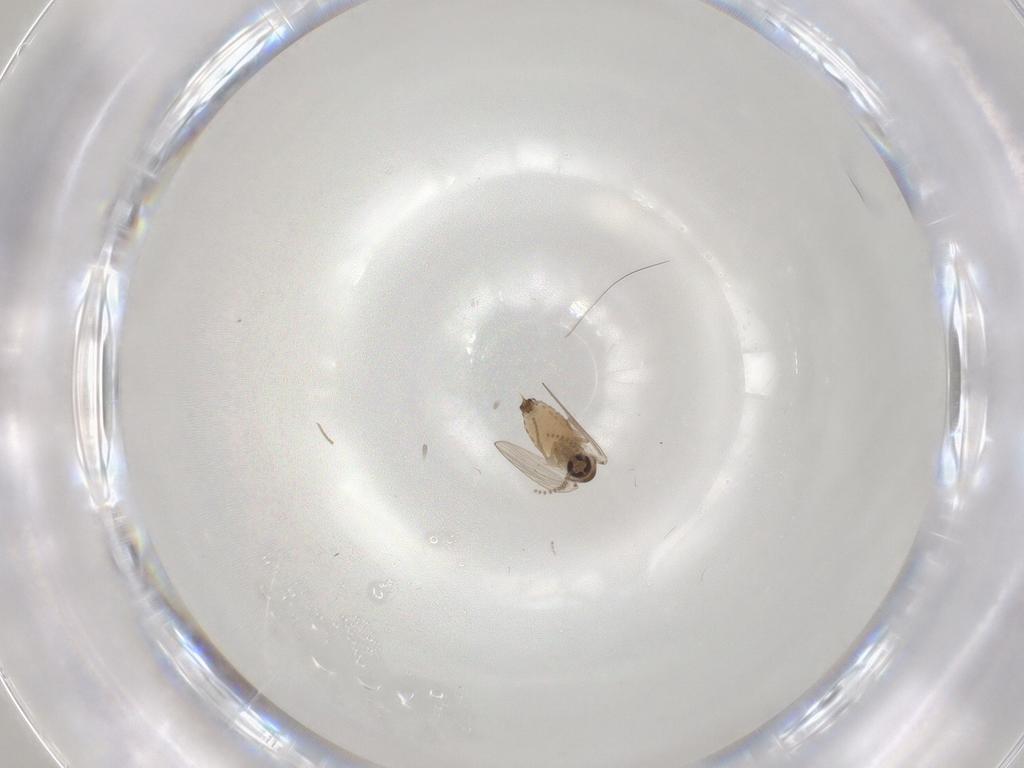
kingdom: Animalia
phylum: Arthropoda
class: Insecta
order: Diptera
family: Psychodidae
